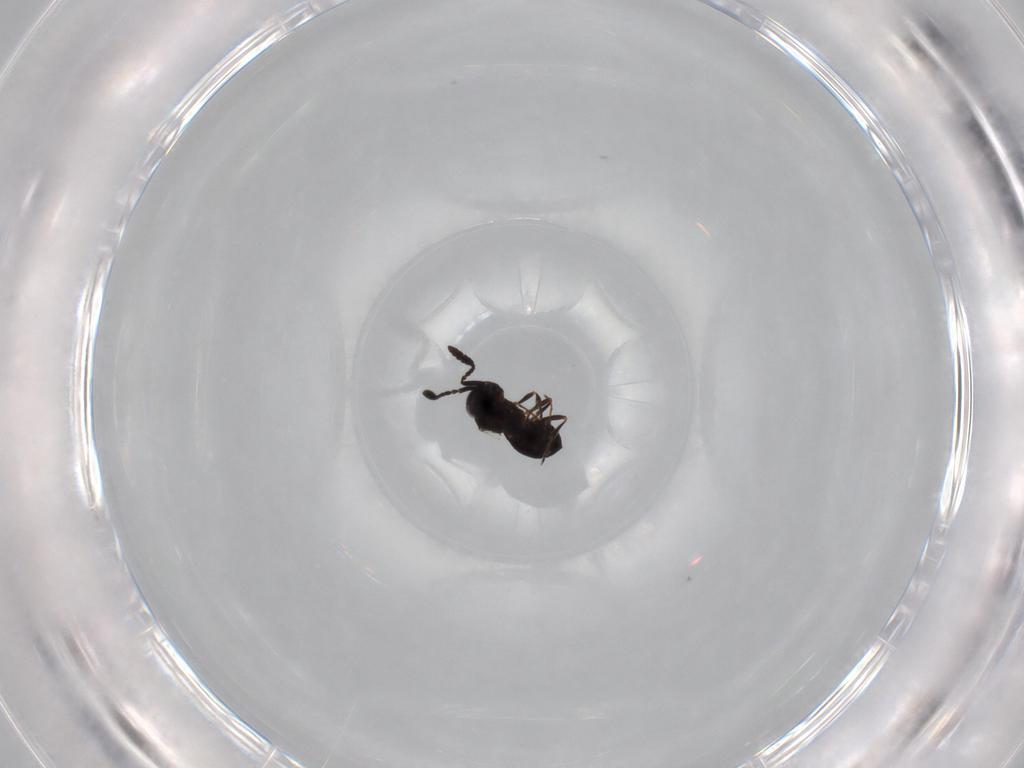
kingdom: Animalia
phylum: Arthropoda
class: Insecta
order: Hymenoptera
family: Scelionidae
